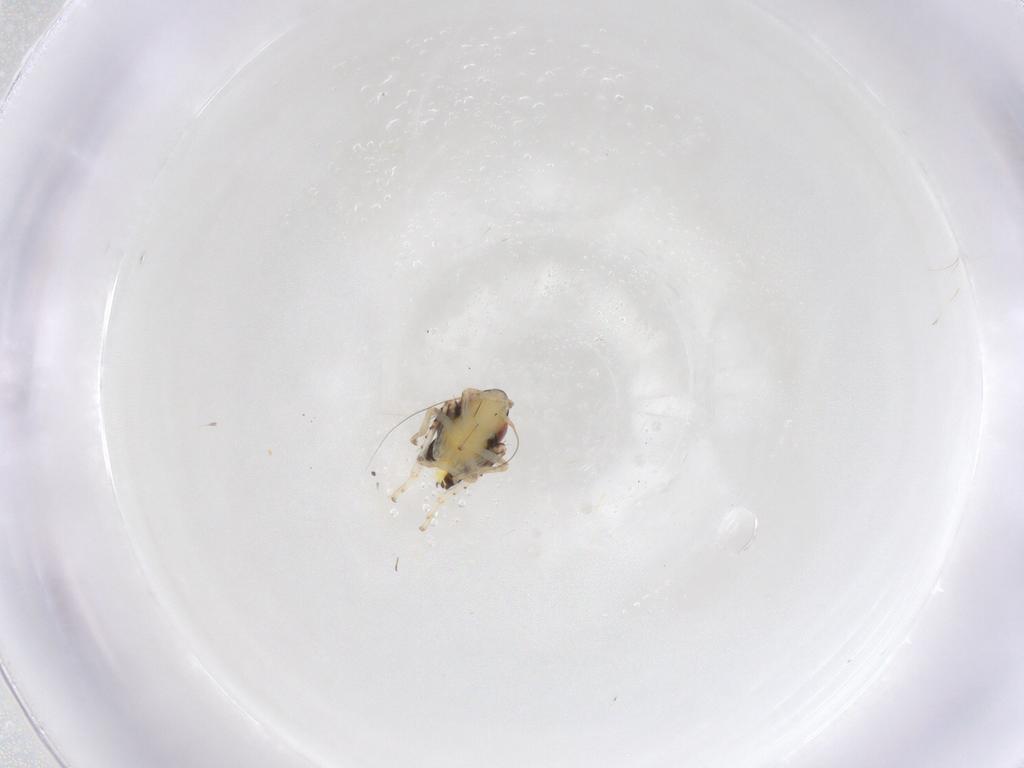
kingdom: Animalia
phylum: Arthropoda
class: Insecta
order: Hemiptera
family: Cicadellidae
